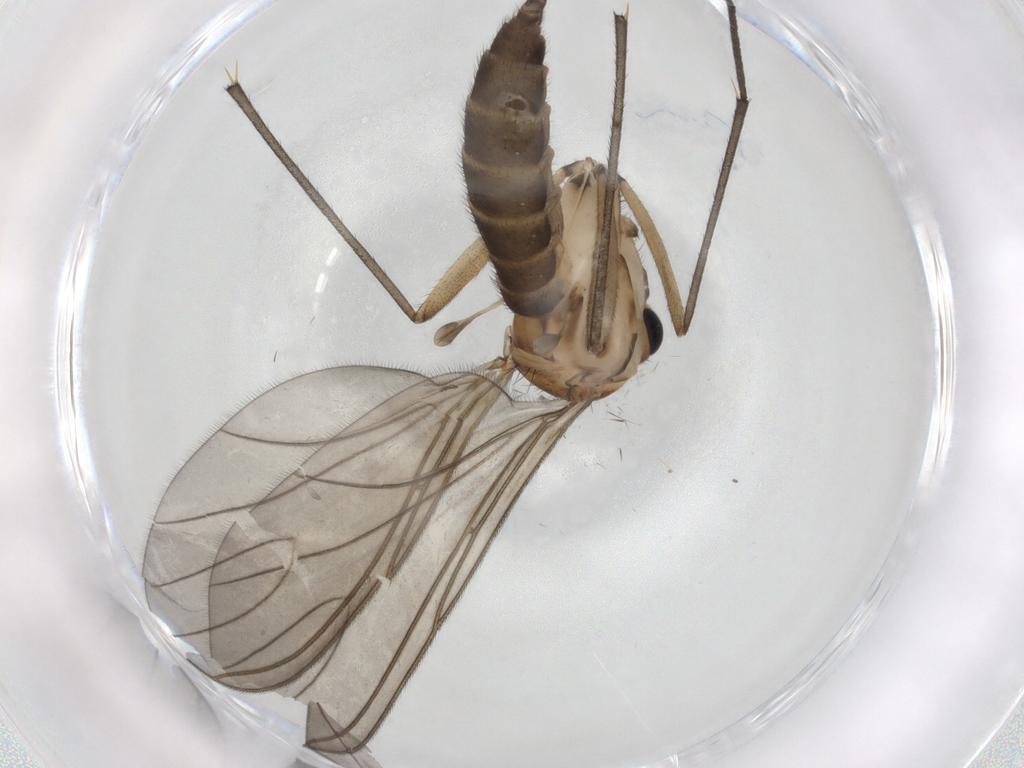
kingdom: Animalia
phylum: Arthropoda
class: Insecta
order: Diptera
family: Sciaridae
